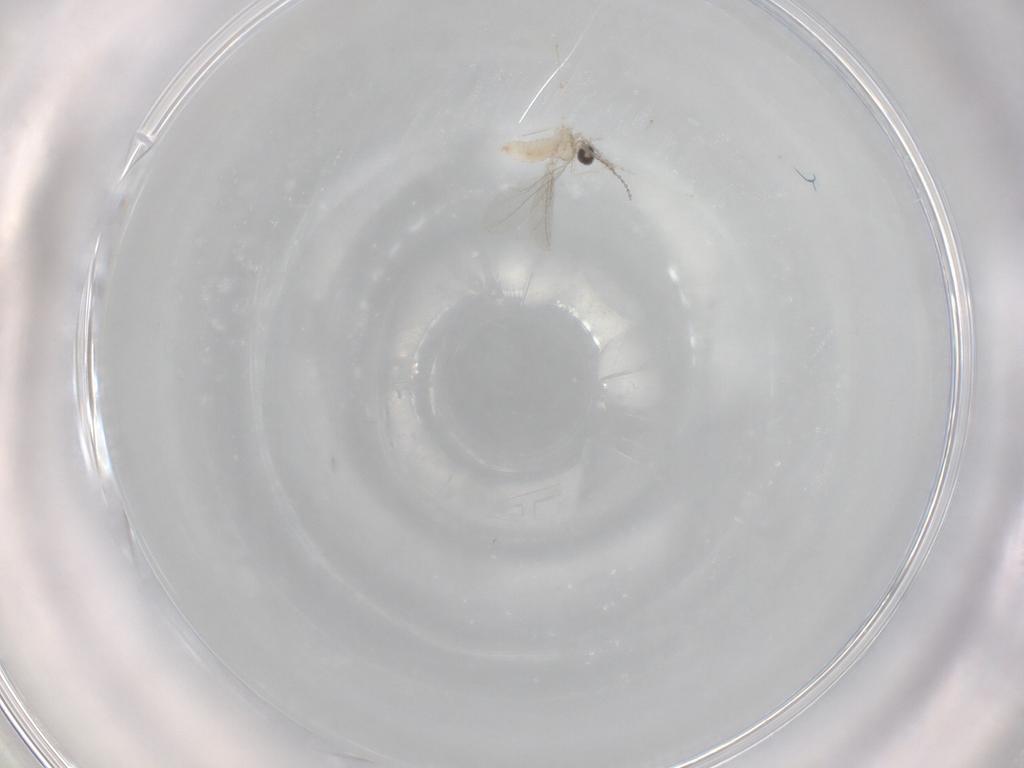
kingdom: Animalia
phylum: Arthropoda
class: Insecta
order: Diptera
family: Cecidomyiidae
